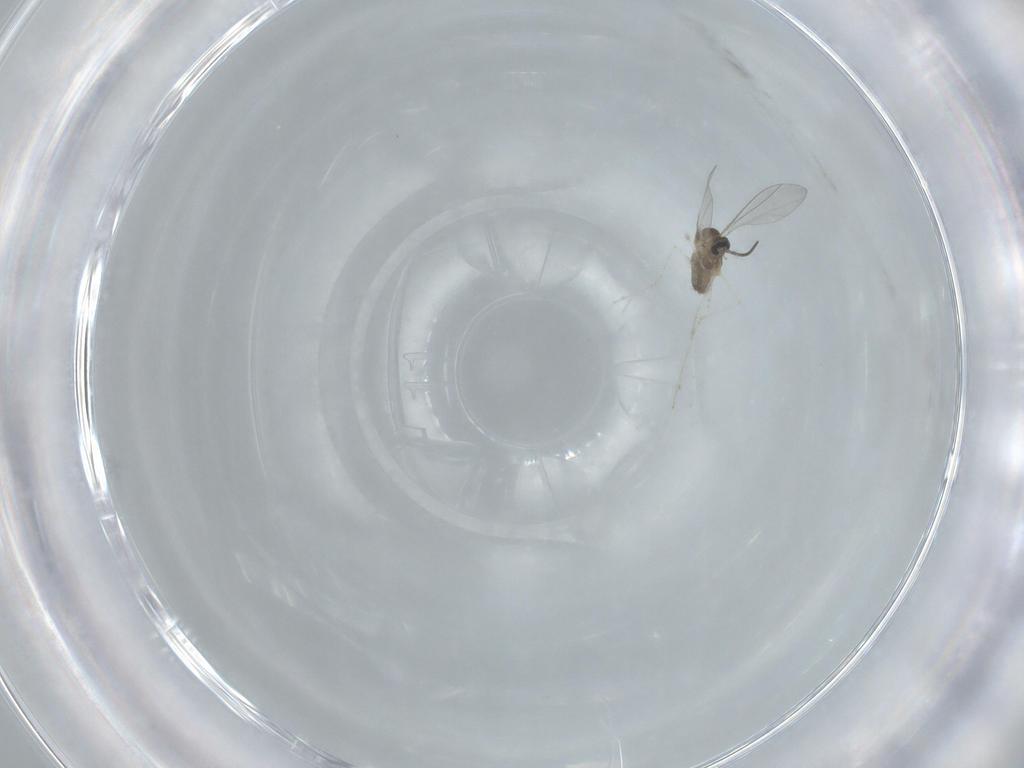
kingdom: Animalia
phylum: Arthropoda
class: Insecta
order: Diptera
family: Cecidomyiidae
